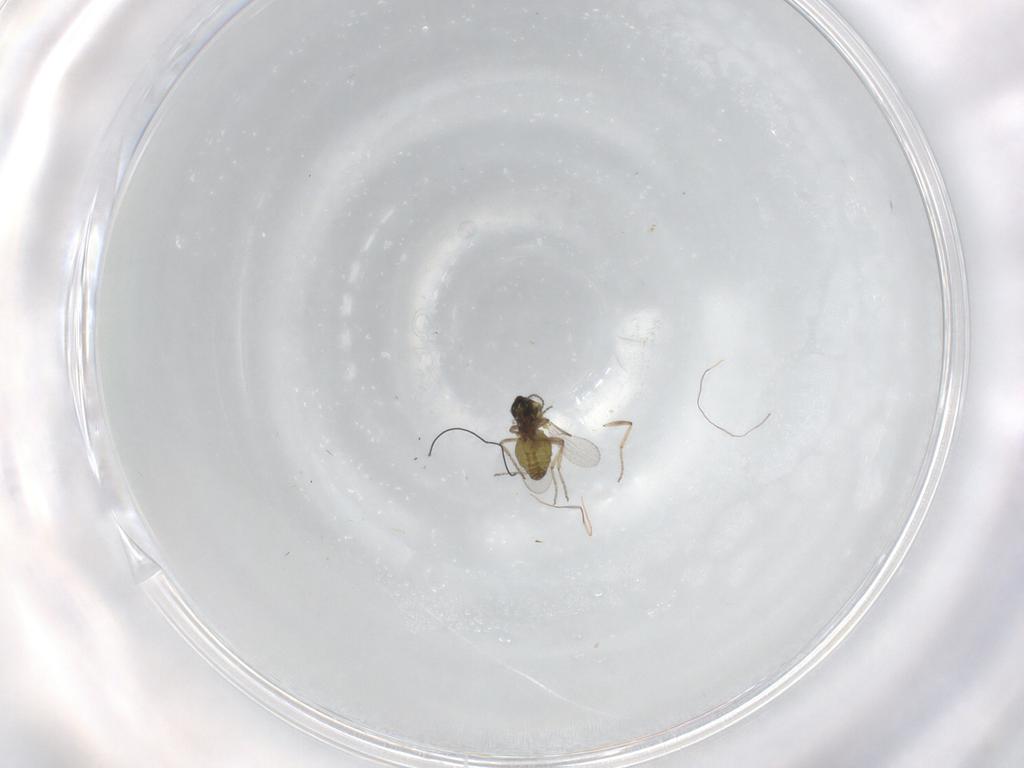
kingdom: Animalia
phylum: Arthropoda
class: Insecta
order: Diptera
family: Ceratopogonidae
